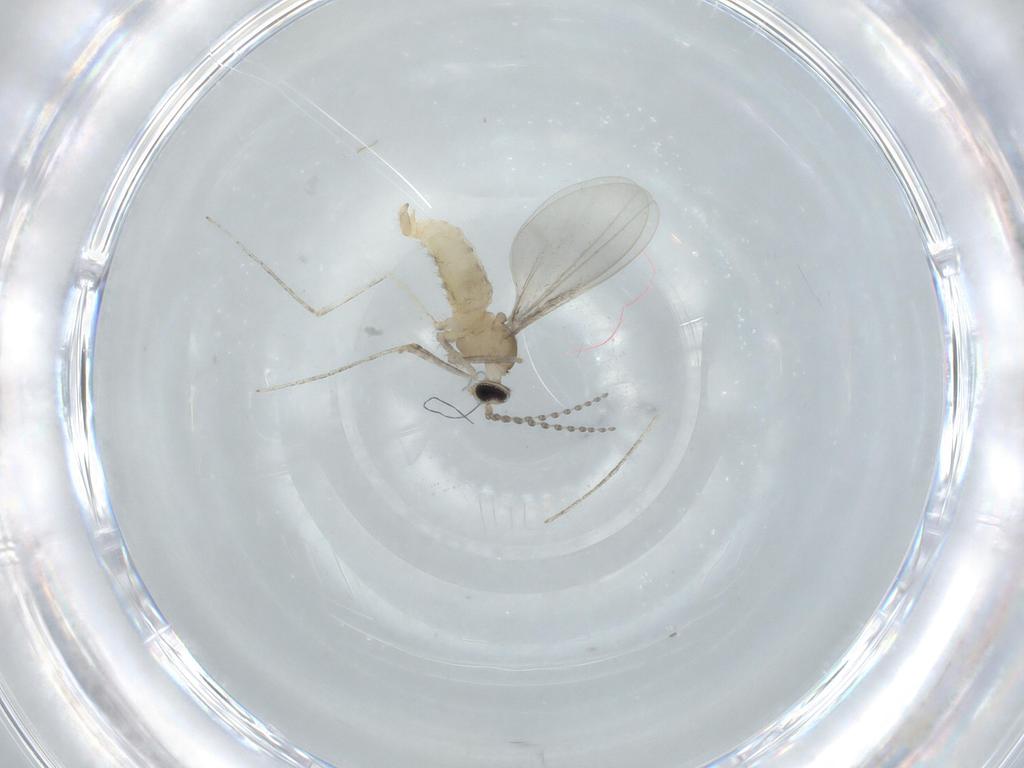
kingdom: Animalia
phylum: Arthropoda
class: Insecta
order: Diptera
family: Cecidomyiidae
